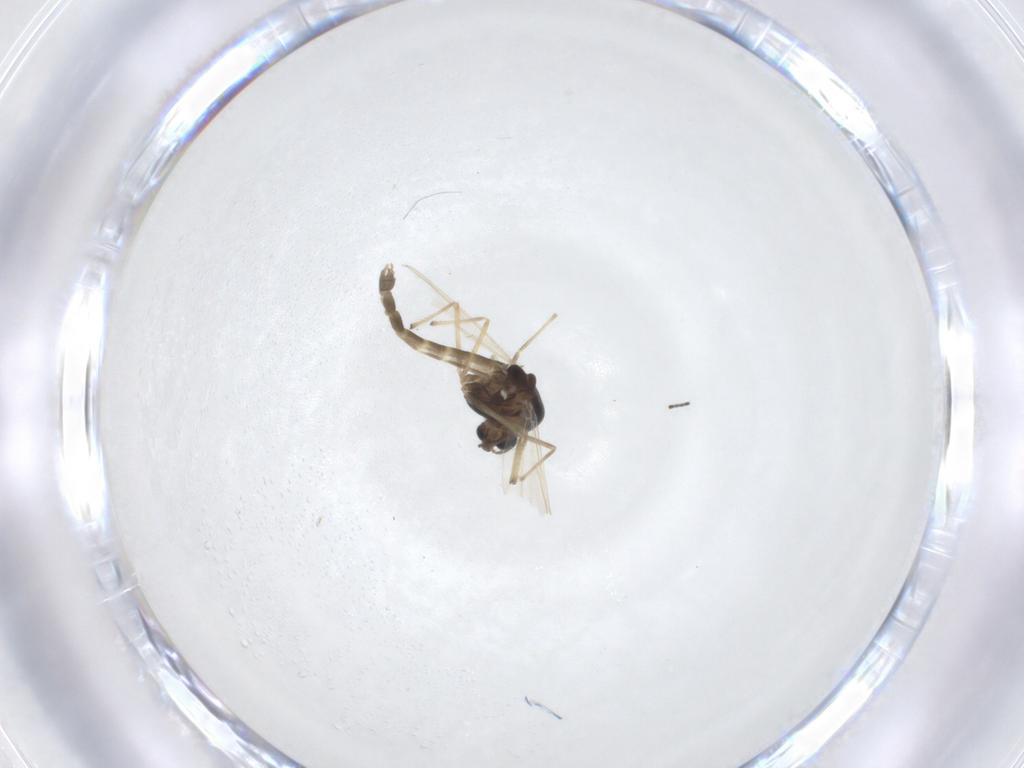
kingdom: Animalia
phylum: Arthropoda
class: Insecta
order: Diptera
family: Chironomidae
